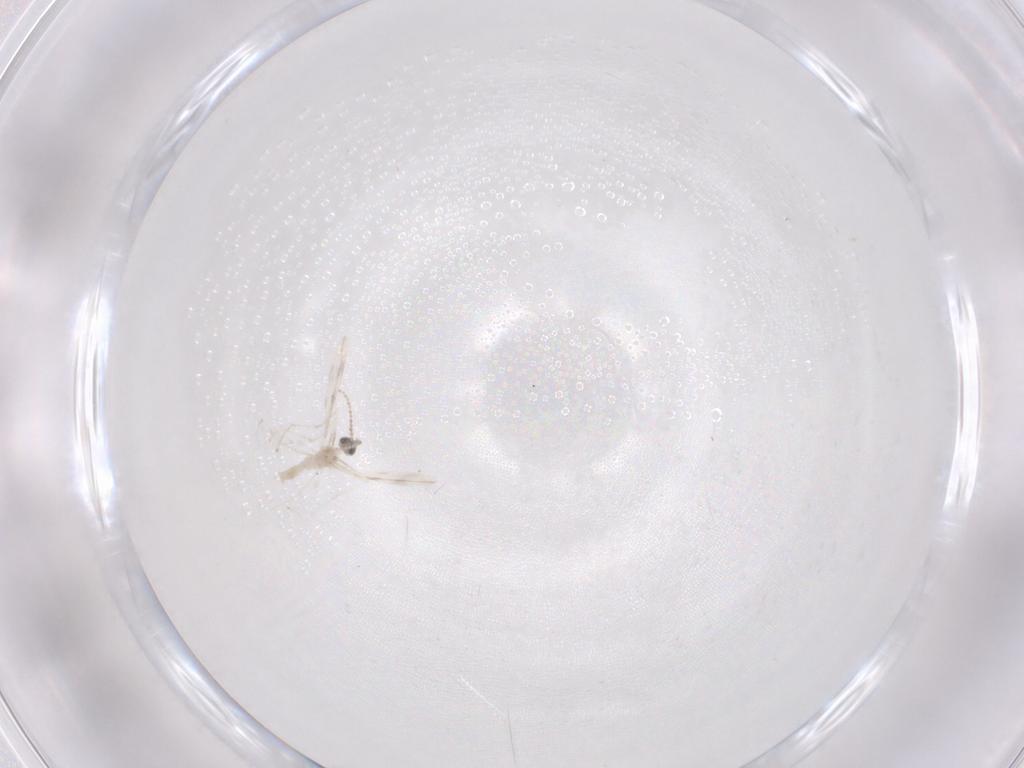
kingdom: Animalia
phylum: Arthropoda
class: Insecta
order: Diptera
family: Cecidomyiidae
